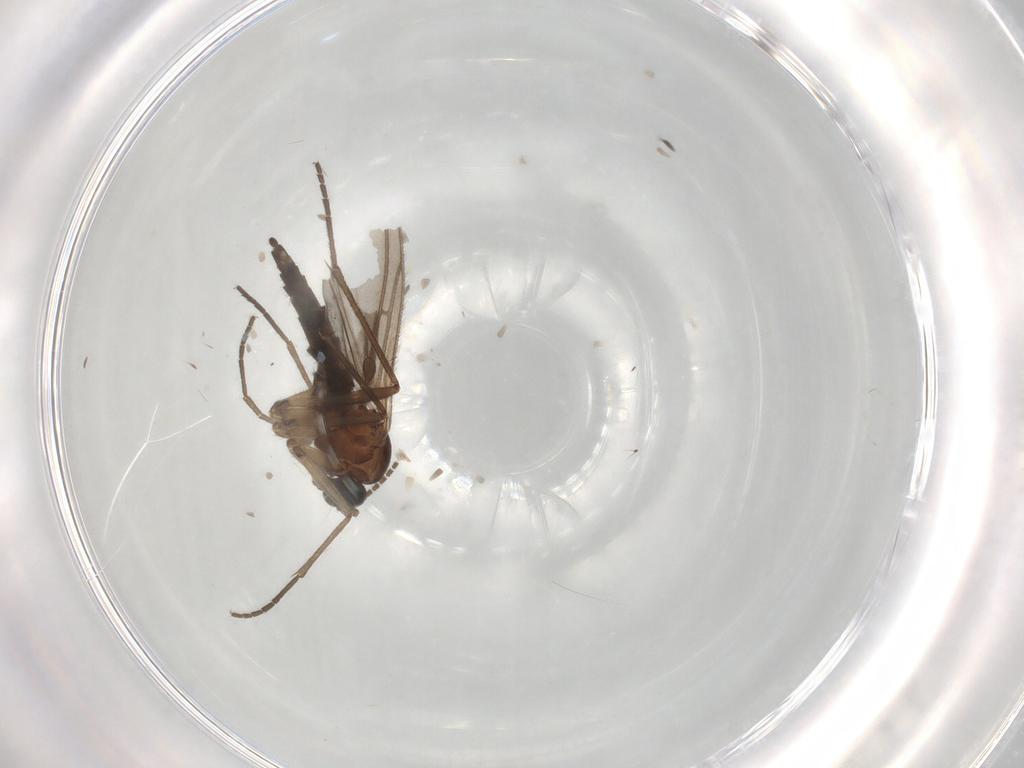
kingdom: Animalia
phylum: Arthropoda
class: Insecta
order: Diptera
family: Sciaridae
